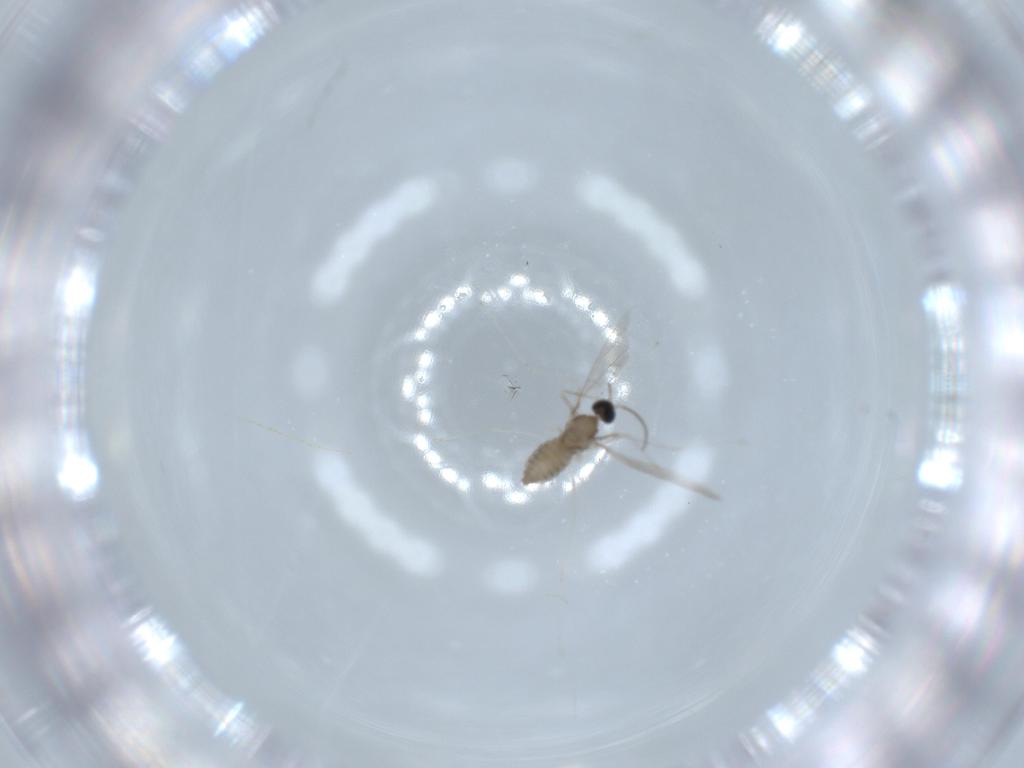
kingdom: Animalia
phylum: Arthropoda
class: Insecta
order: Diptera
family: Cecidomyiidae
